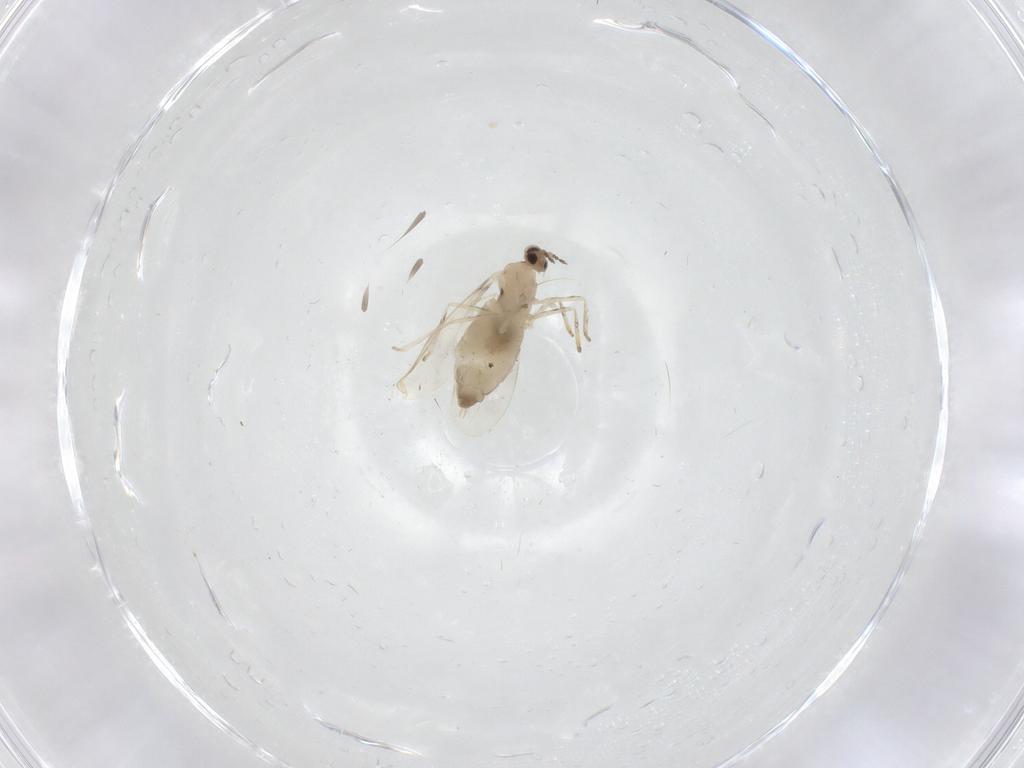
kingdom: Animalia
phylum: Arthropoda
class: Insecta
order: Diptera
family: Cecidomyiidae
